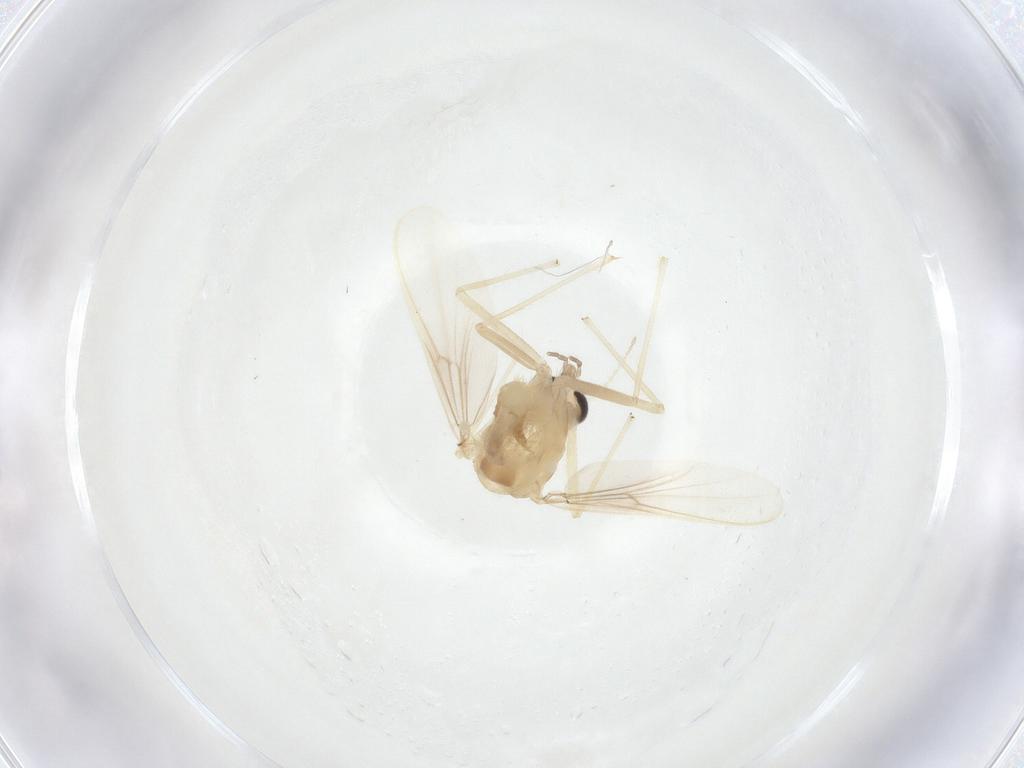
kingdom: Animalia
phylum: Arthropoda
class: Insecta
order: Diptera
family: Chironomidae
